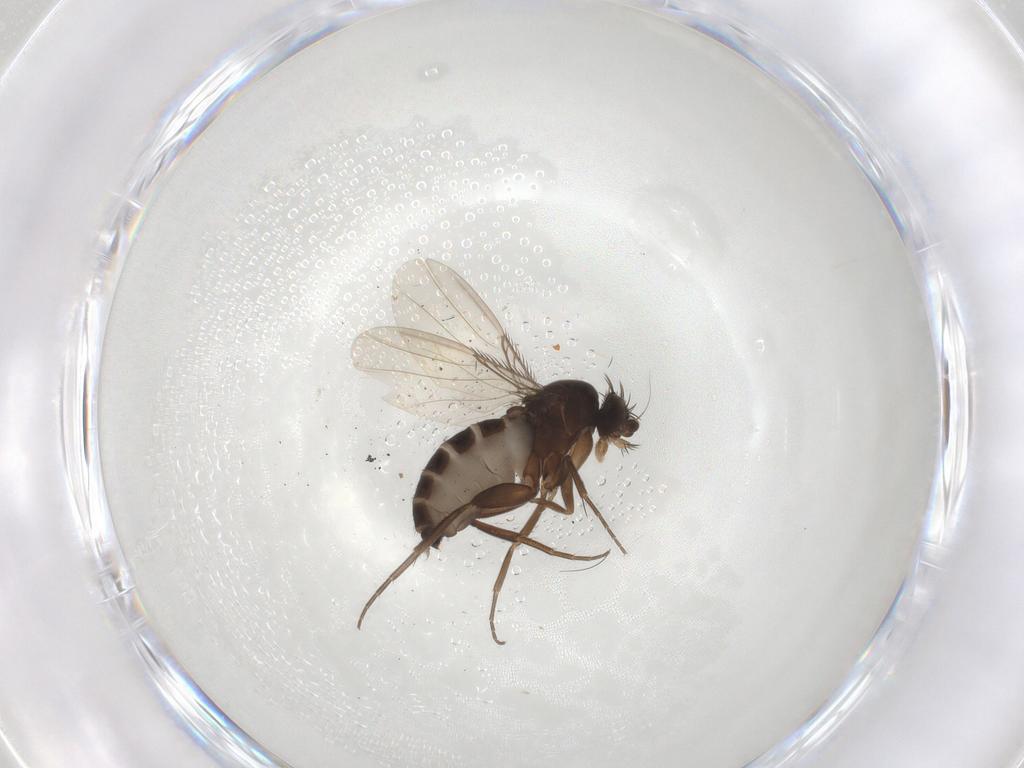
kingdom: Animalia
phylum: Arthropoda
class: Insecta
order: Diptera
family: Phoridae
